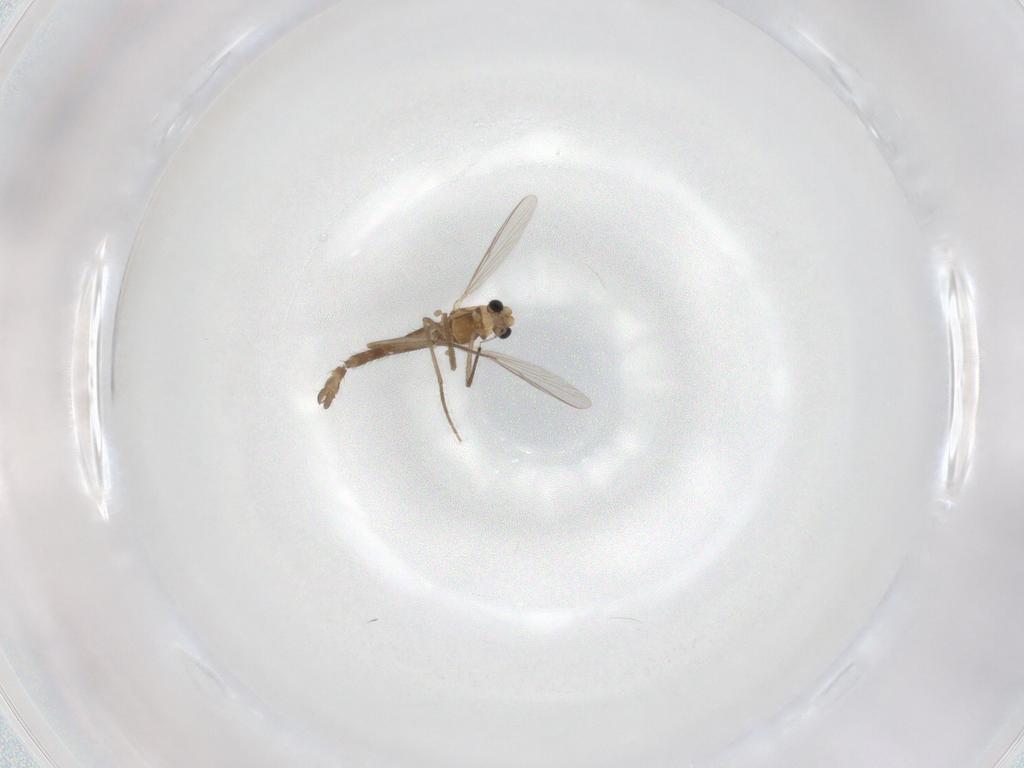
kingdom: Animalia
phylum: Arthropoda
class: Insecta
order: Diptera
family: Chironomidae
